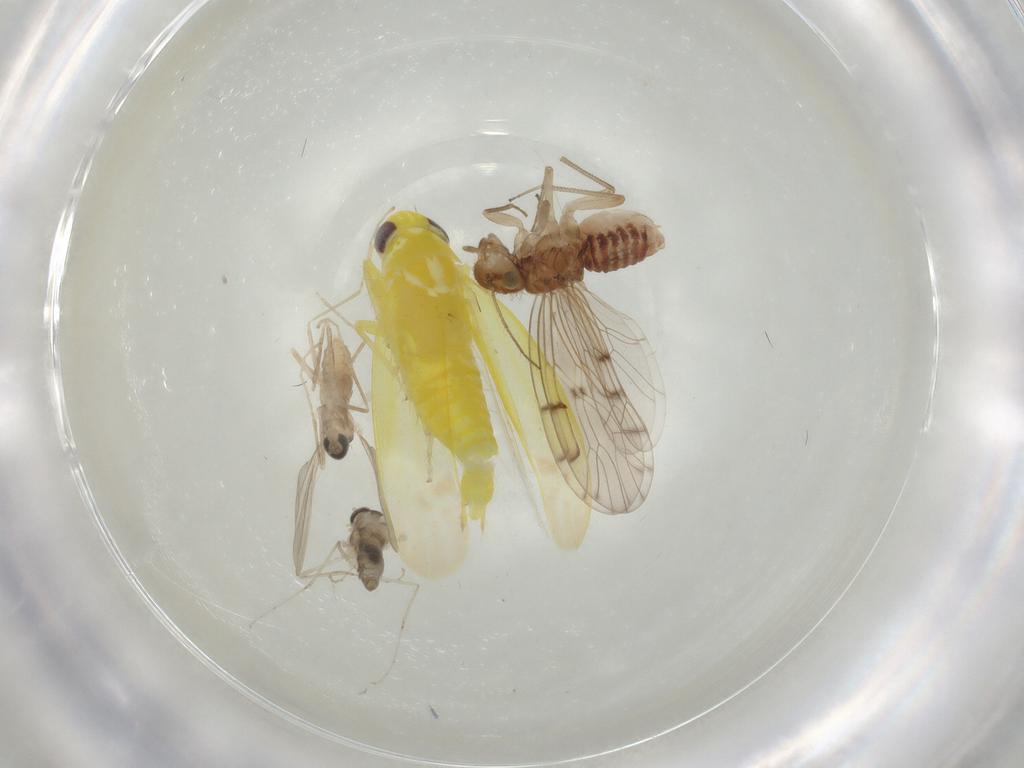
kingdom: Animalia
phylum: Arthropoda
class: Insecta
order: Hemiptera
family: Cicadellidae
